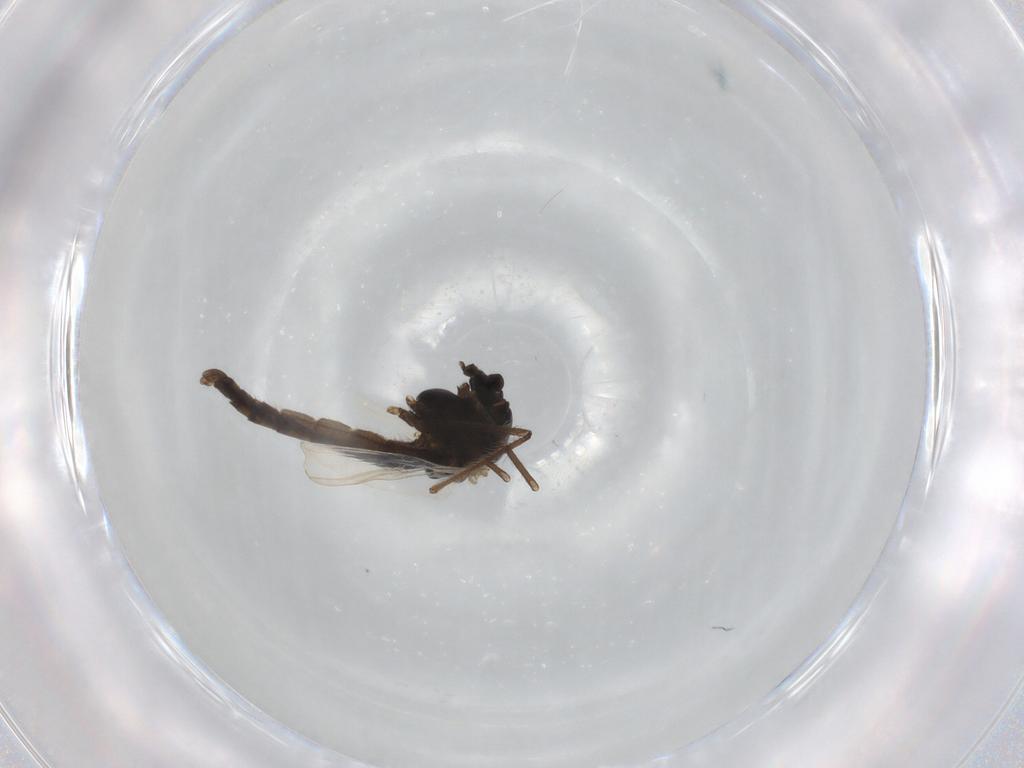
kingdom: Animalia
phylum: Arthropoda
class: Insecta
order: Diptera
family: Chironomidae
